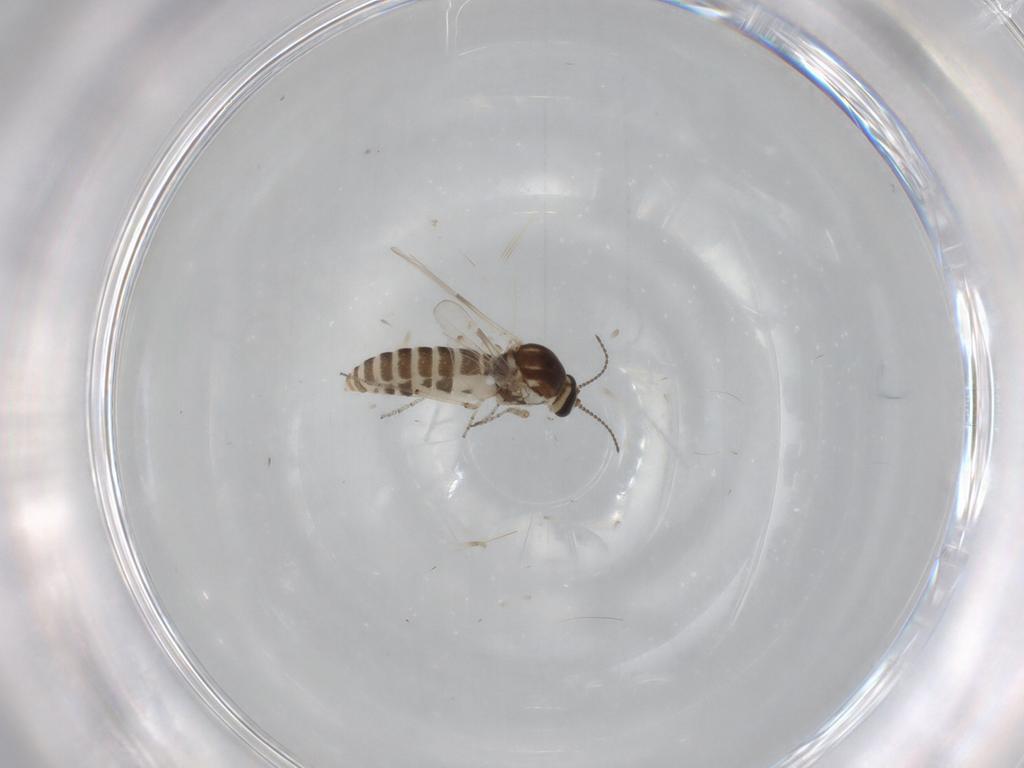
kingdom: Animalia
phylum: Arthropoda
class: Insecta
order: Diptera
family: Ceratopogonidae
